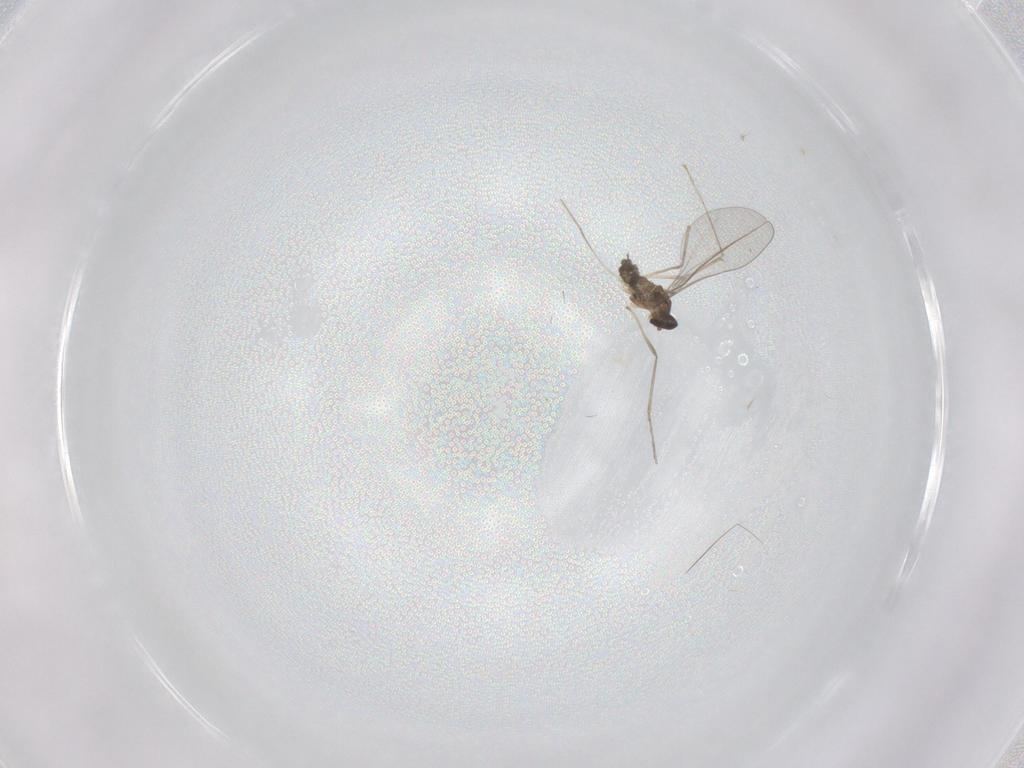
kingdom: Animalia
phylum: Arthropoda
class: Insecta
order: Diptera
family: Cecidomyiidae
